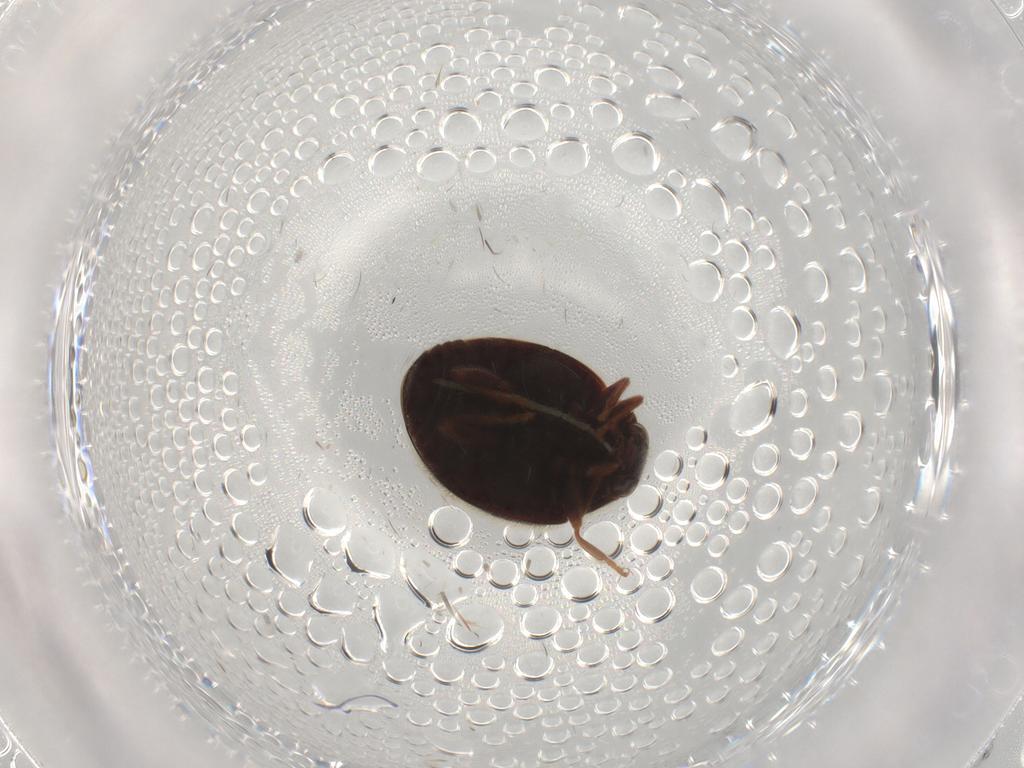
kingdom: Animalia
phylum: Arthropoda
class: Insecta
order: Coleoptera
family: Coccinellidae
